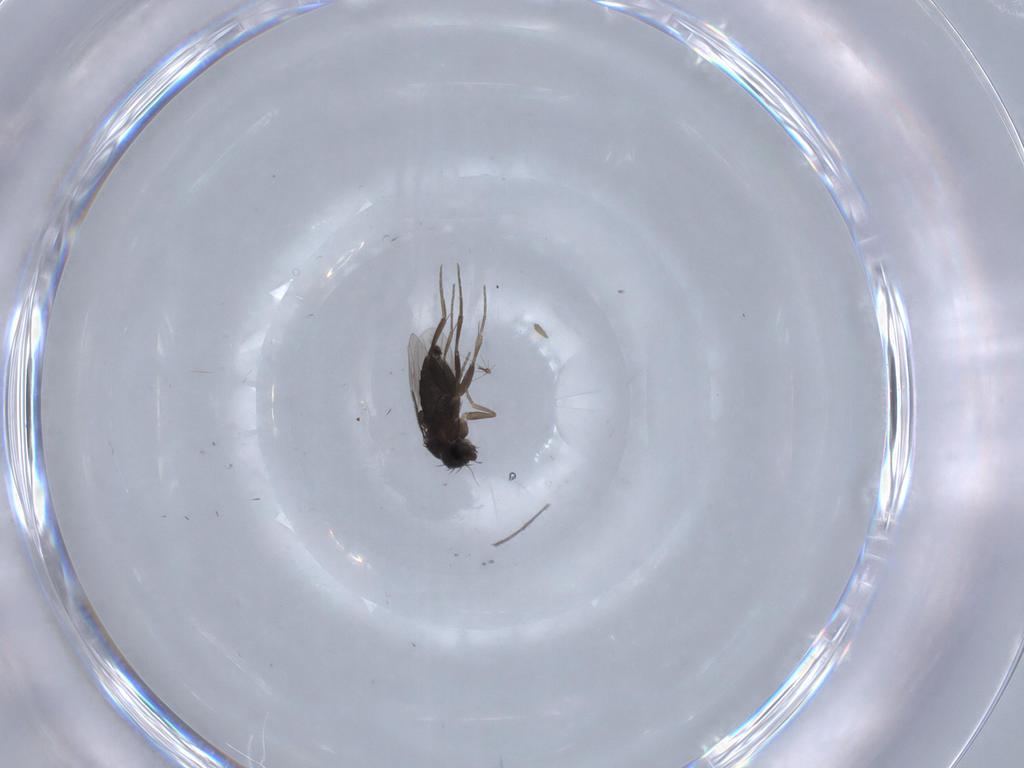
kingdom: Animalia
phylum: Arthropoda
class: Insecta
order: Diptera
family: Phoridae
